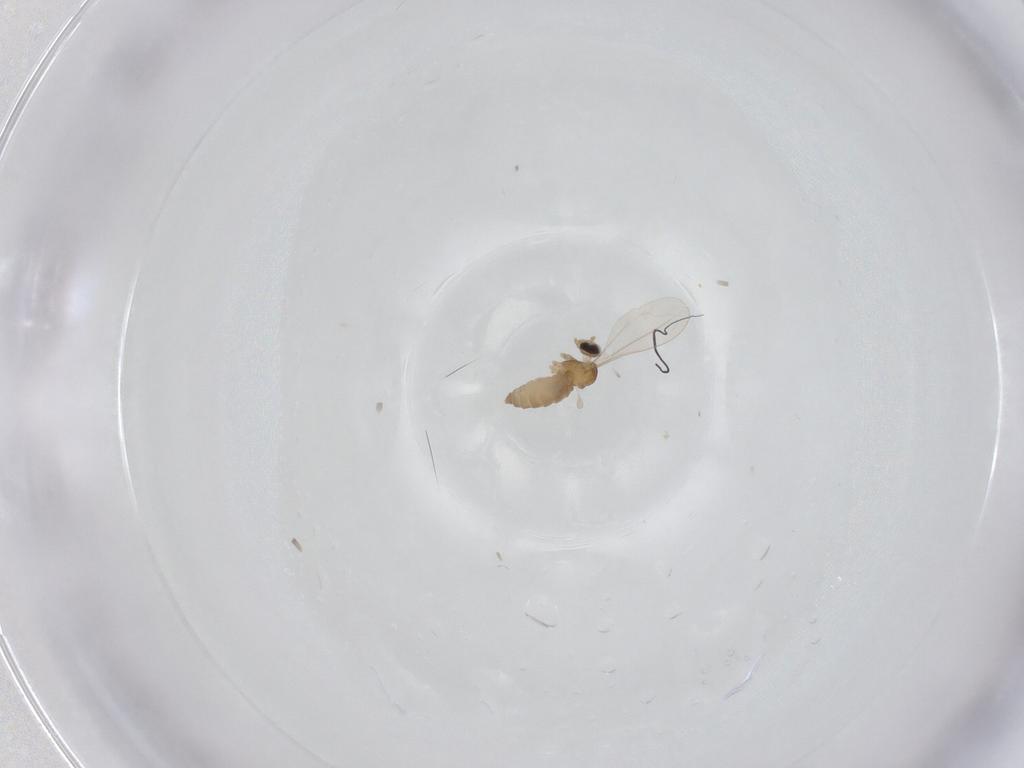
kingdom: Animalia
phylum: Arthropoda
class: Insecta
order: Diptera
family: Cecidomyiidae
